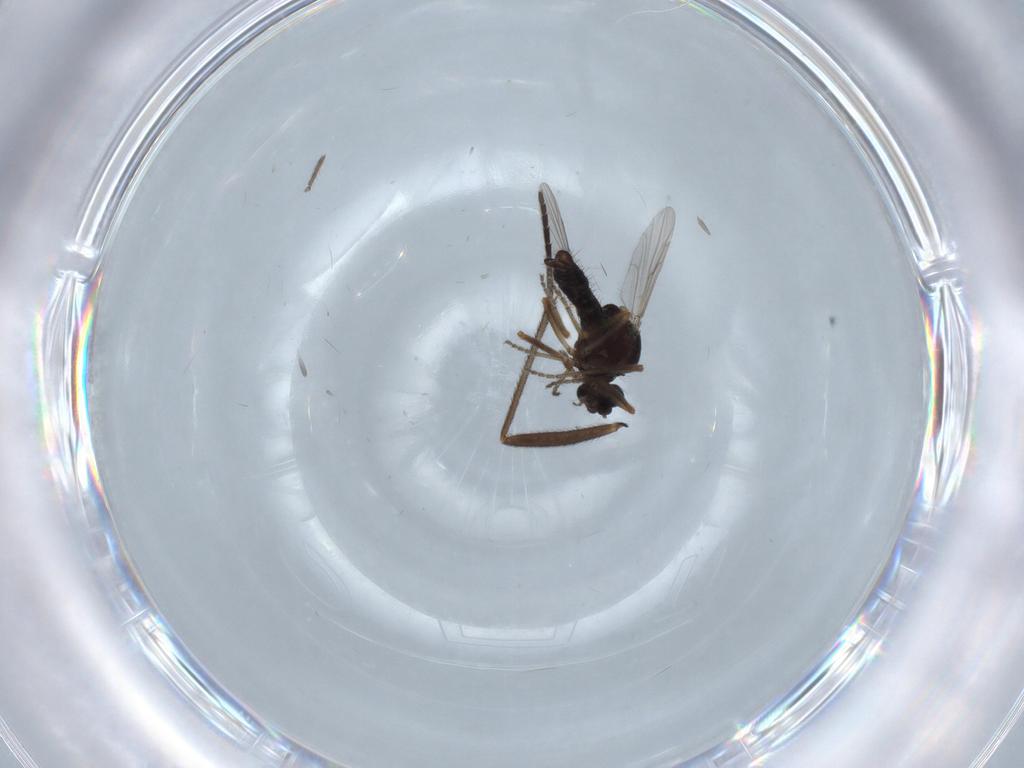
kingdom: Animalia
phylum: Arthropoda
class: Insecta
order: Diptera
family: Ceratopogonidae
